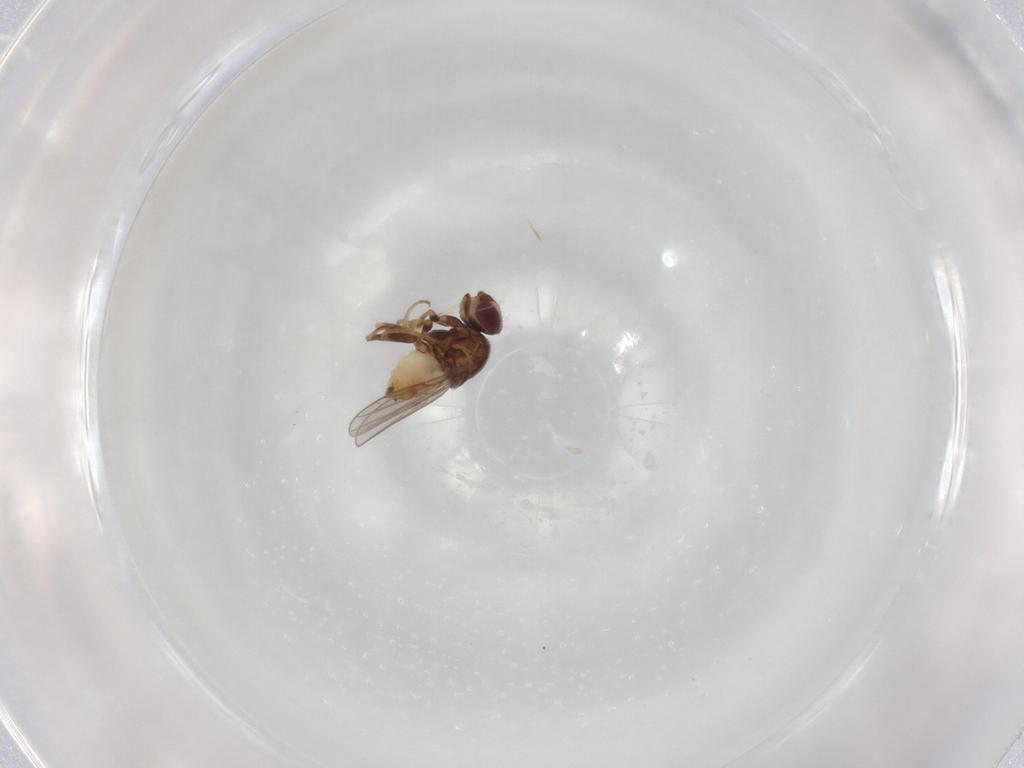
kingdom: Animalia
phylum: Arthropoda
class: Insecta
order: Diptera
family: Chloropidae
